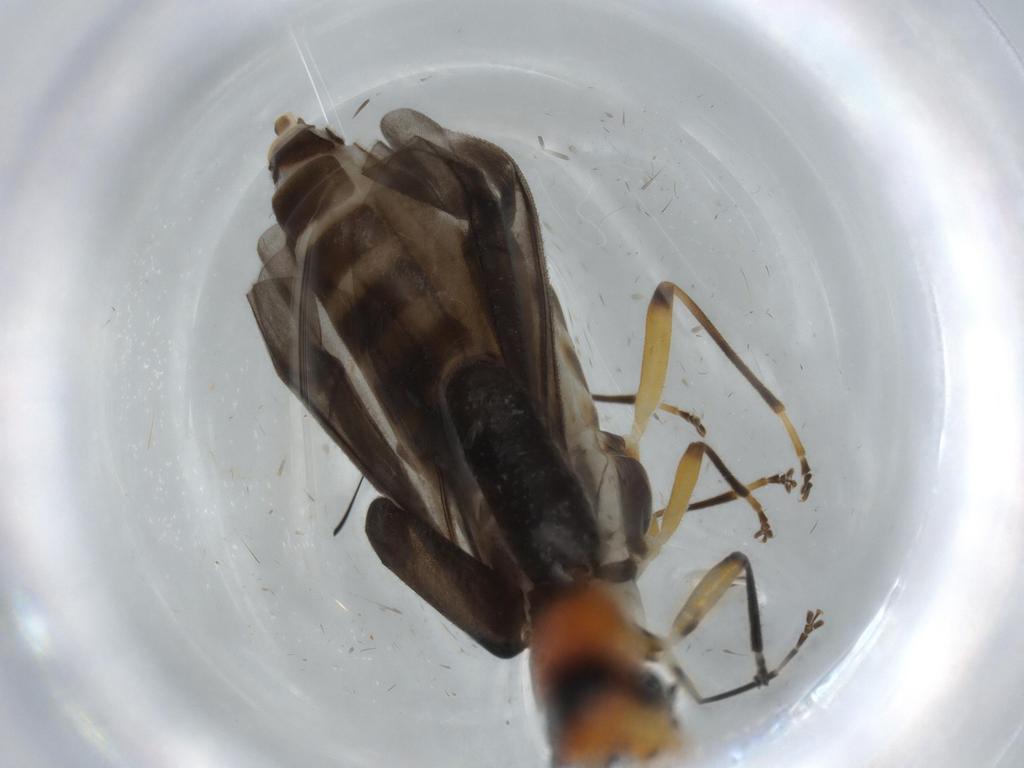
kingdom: Animalia
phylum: Arthropoda
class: Insecta
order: Coleoptera
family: Cantharidae
